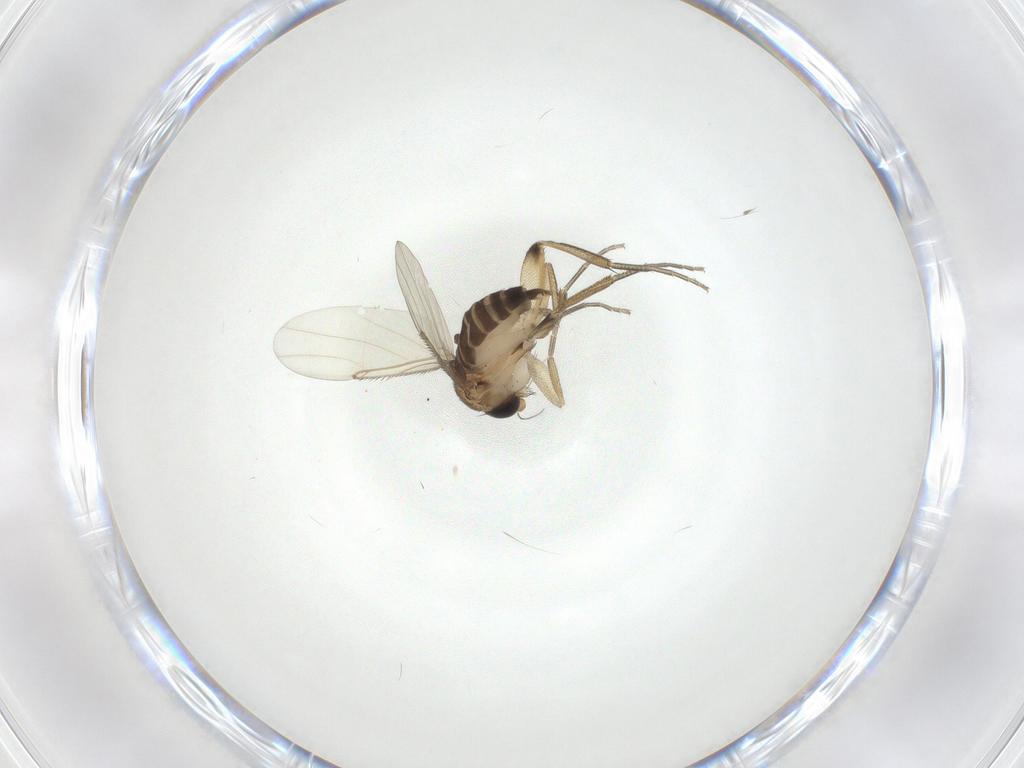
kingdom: Animalia
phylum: Arthropoda
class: Insecta
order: Diptera
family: Phoridae
